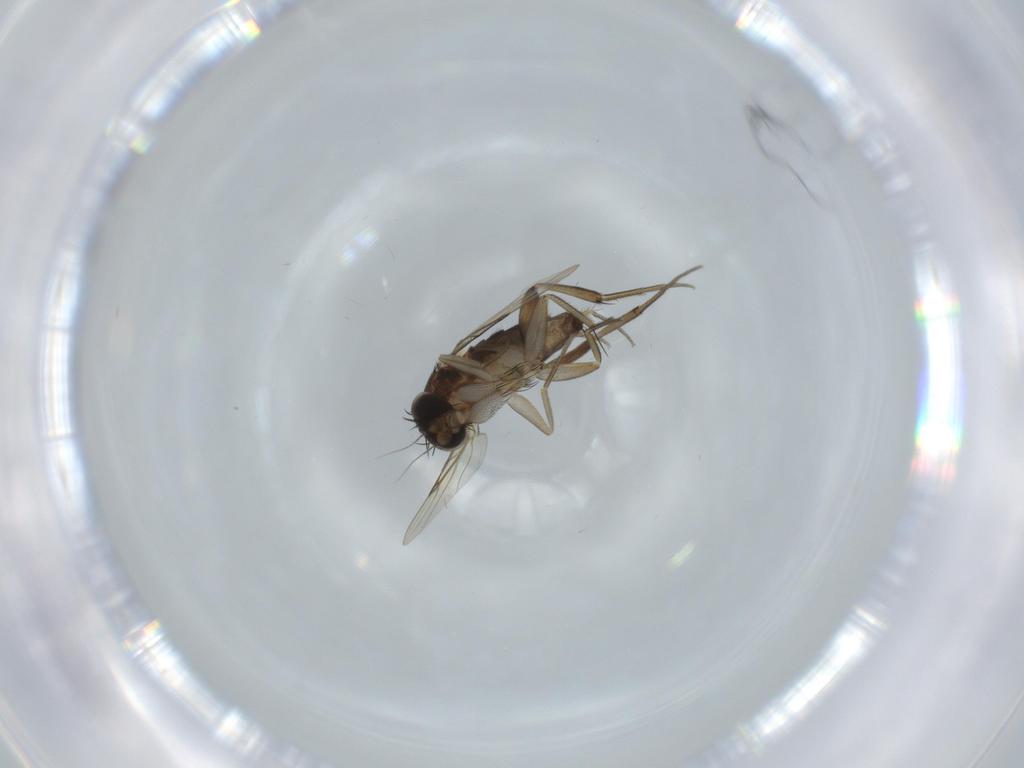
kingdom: Animalia
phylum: Arthropoda
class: Insecta
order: Diptera
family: Phoridae
